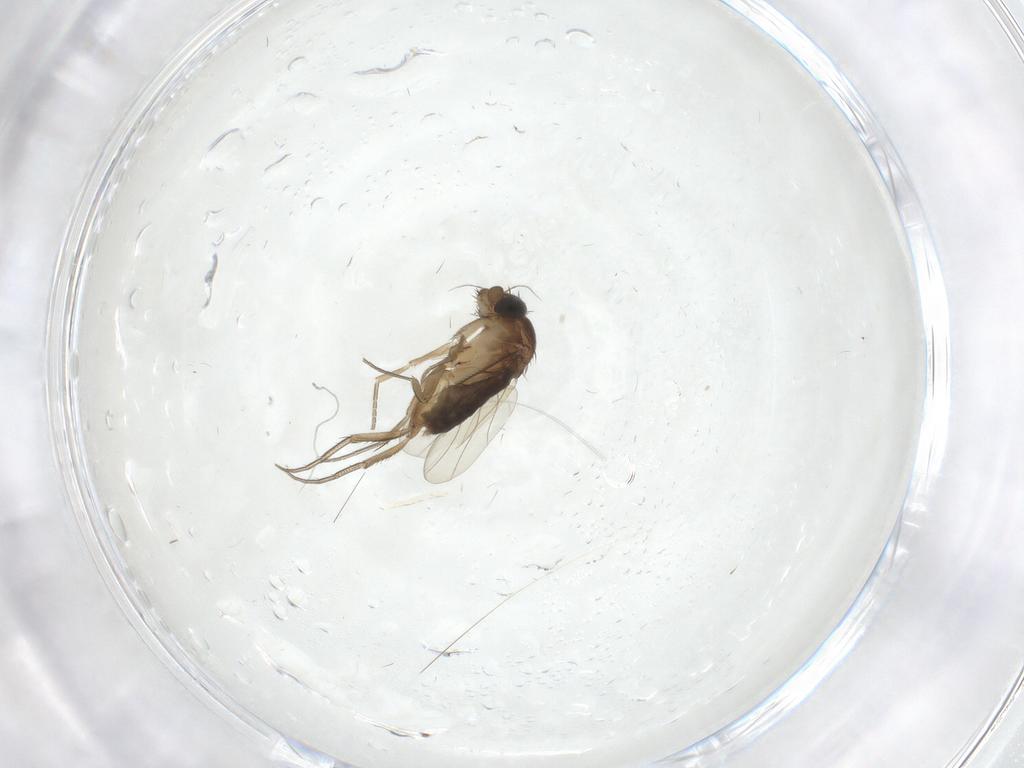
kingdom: Animalia
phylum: Arthropoda
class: Insecta
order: Diptera
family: Phoridae
